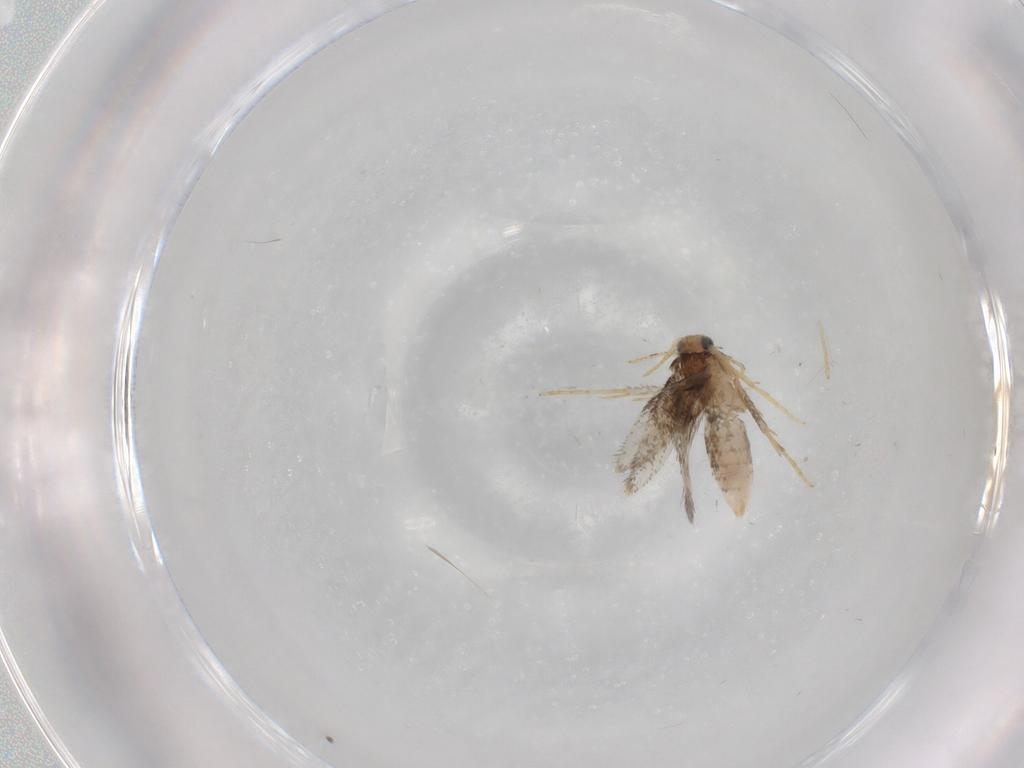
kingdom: Animalia
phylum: Arthropoda
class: Insecta
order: Lepidoptera
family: Nepticulidae
